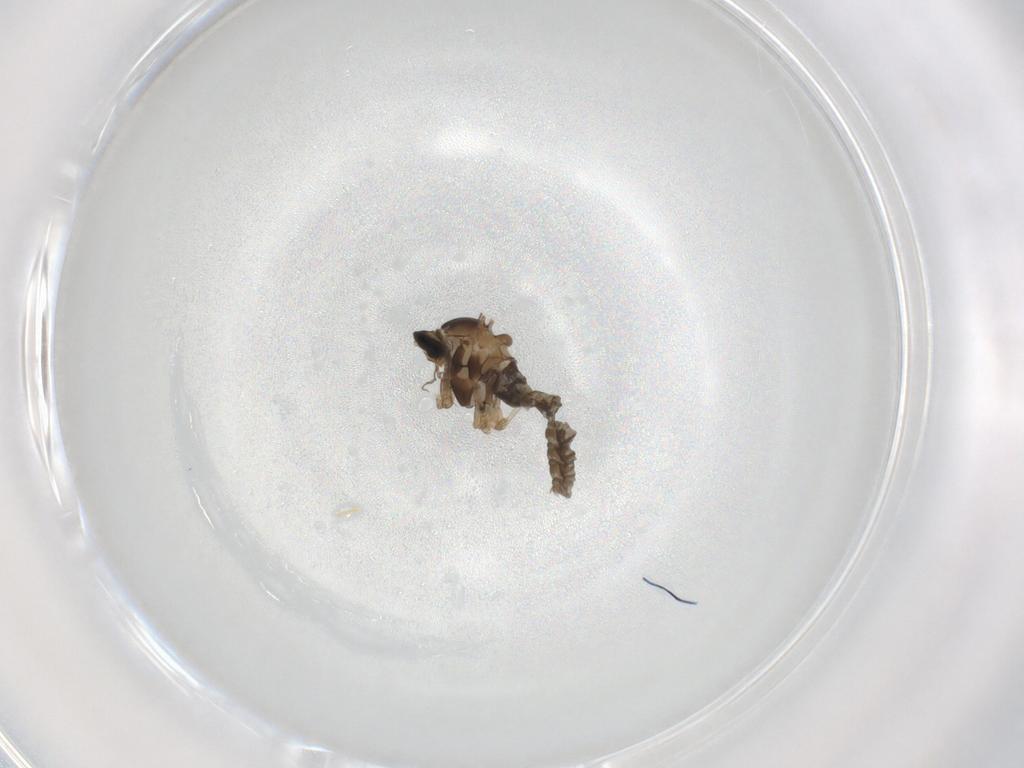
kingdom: Animalia
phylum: Arthropoda
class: Insecta
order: Diptera
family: Cecidomyiidae
